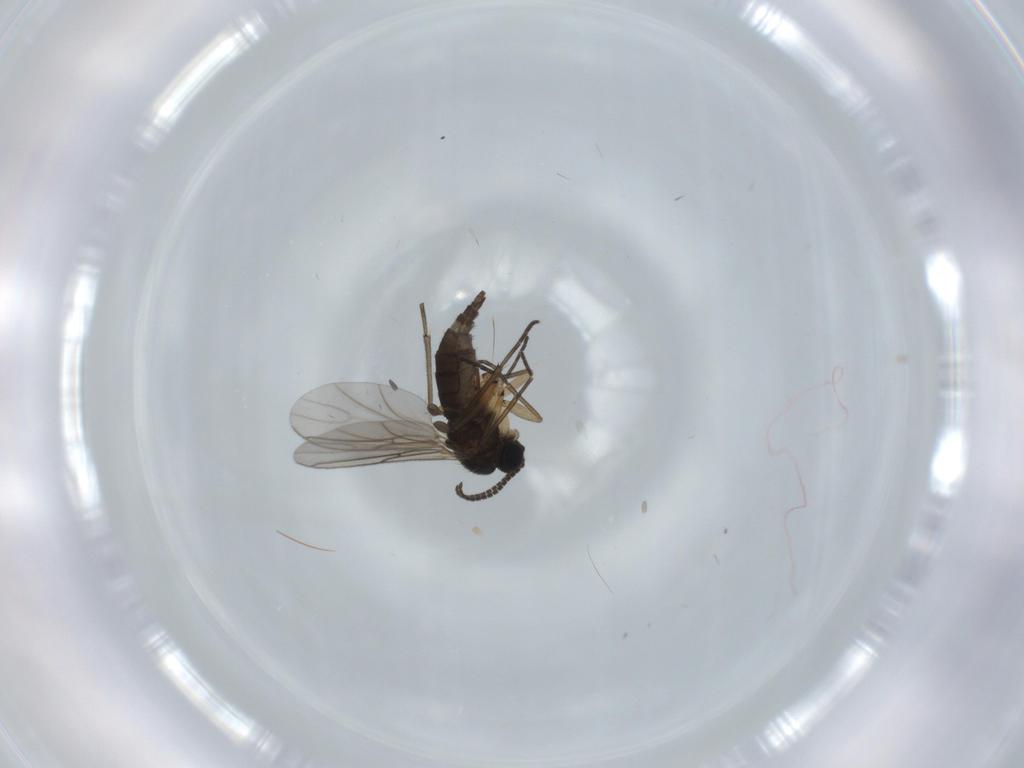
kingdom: Animalia
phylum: Arthropoda
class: Insecta
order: Diptera
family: Sciaridae
